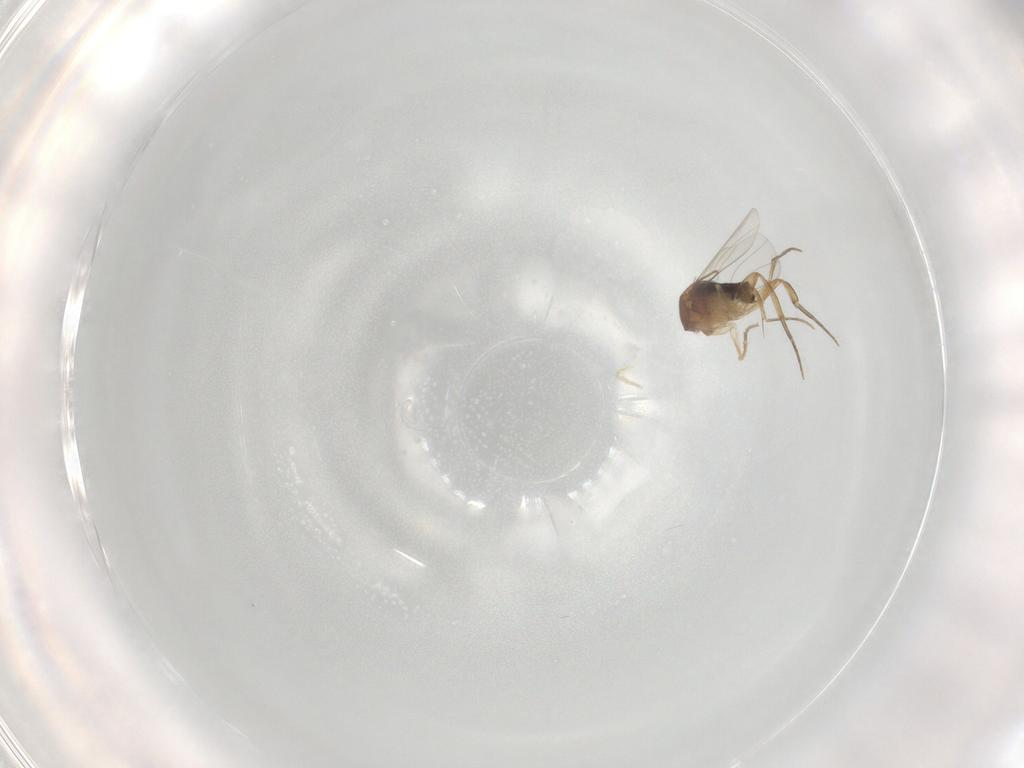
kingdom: Animalia
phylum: Arthropoda
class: Insecta
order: Diptera
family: Phoridae
